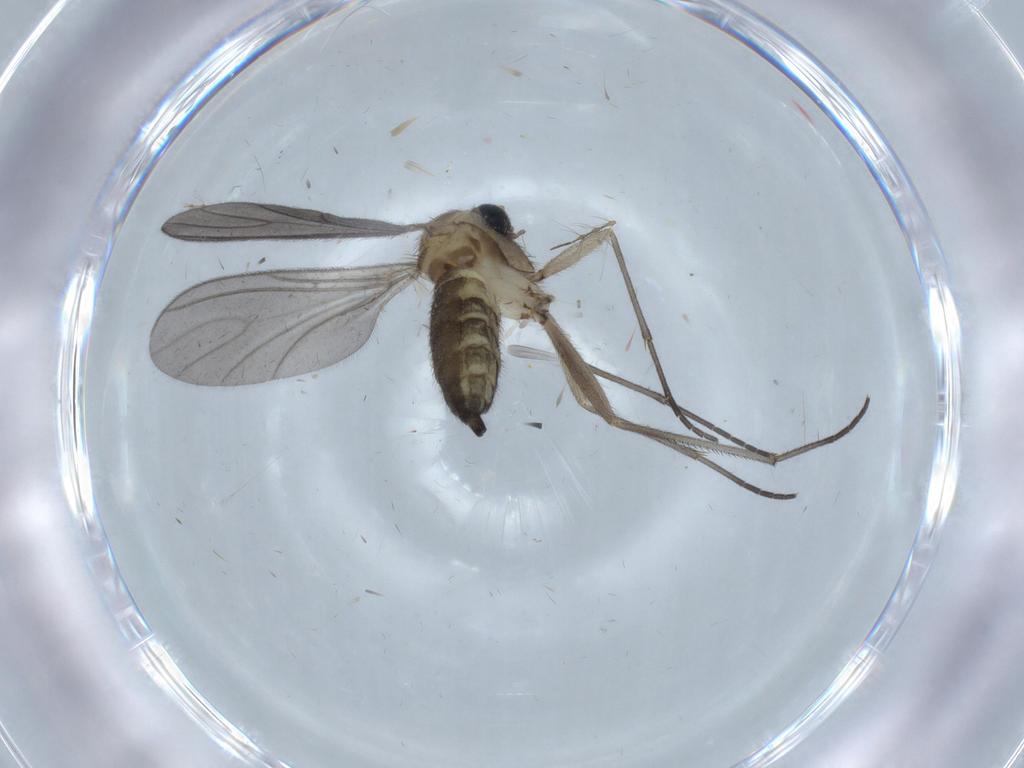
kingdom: Animalia
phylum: Arthropoda
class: Insecta
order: Diptera
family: Sciaridae
